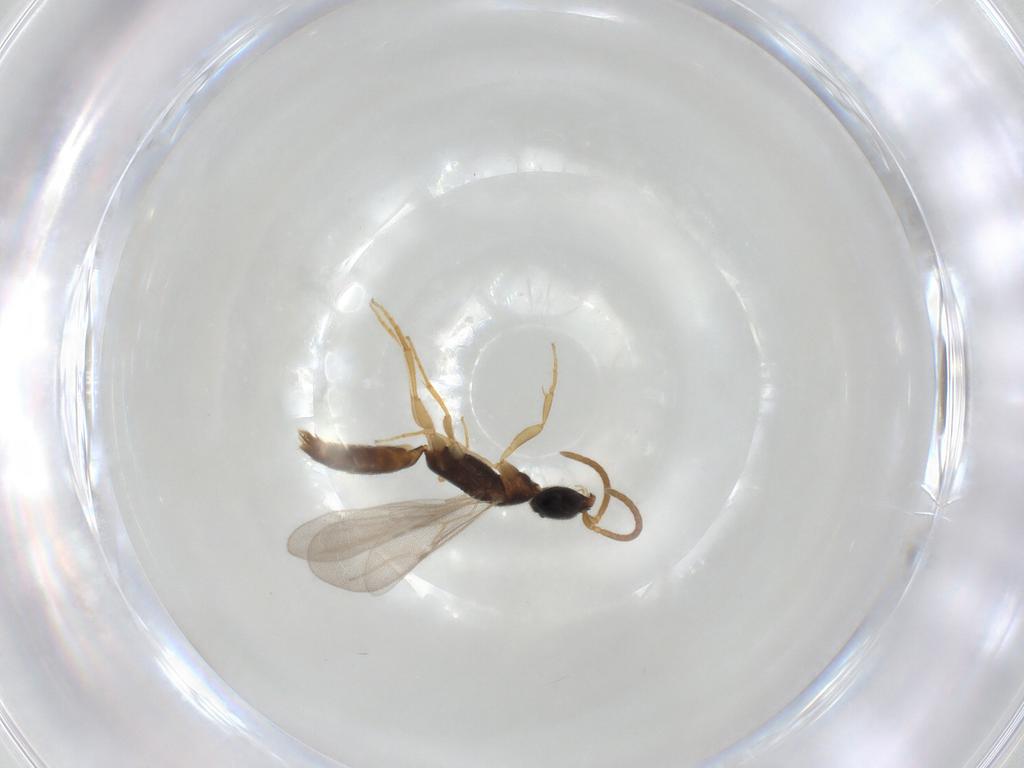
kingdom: Animalia
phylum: Arthropoda
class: Insecta
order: Hymenoptera
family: Bethylidae
